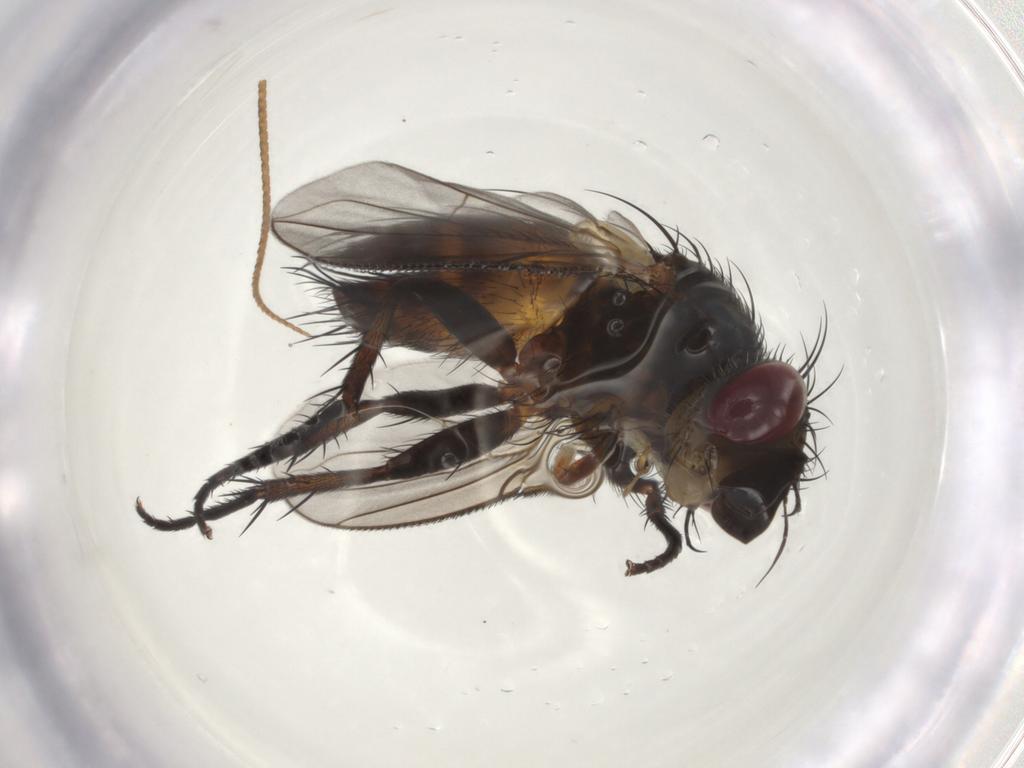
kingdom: Animalia
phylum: Arthropoda
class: Insecta
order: Diptera
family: Tachinidae
